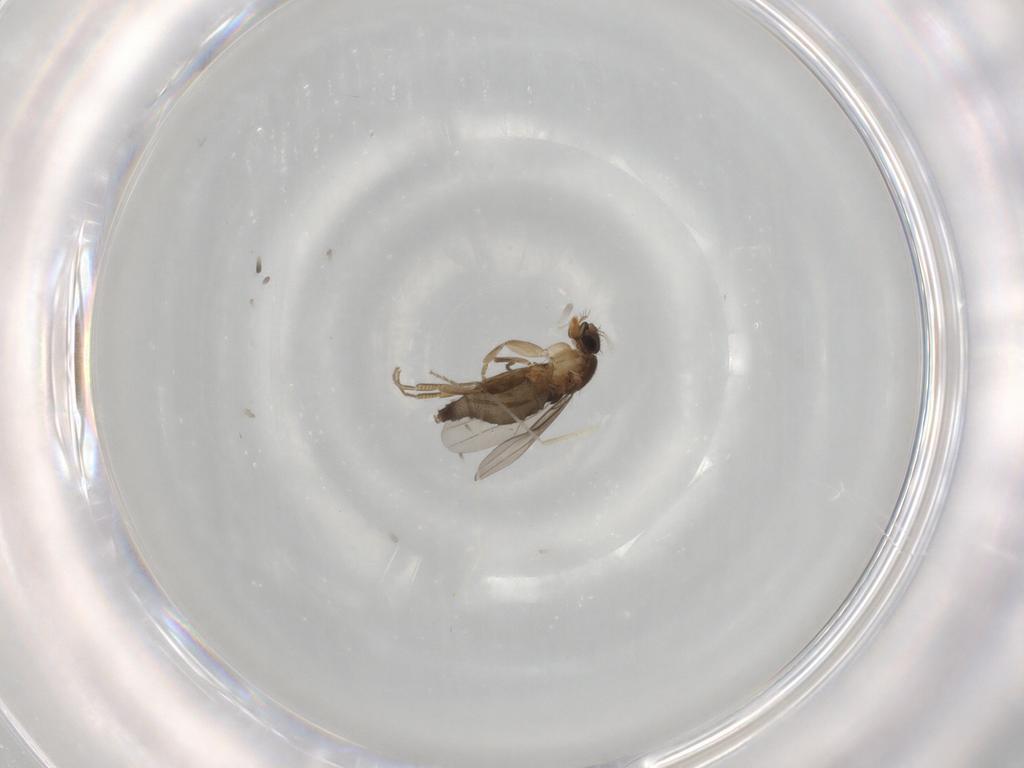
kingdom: Animalia
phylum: Arthropoda
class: Insecta
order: Diptera
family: Cecidomyiidae
